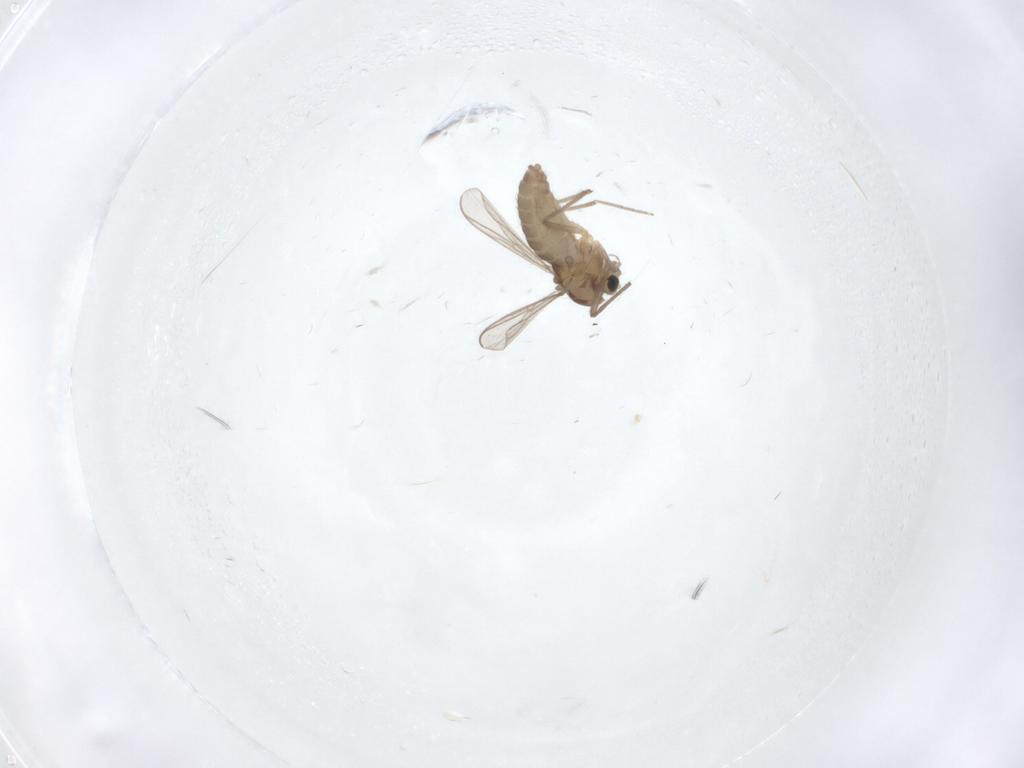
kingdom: Animalia
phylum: Arthropoda
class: Insecta
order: Diptera
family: Chironomidae
